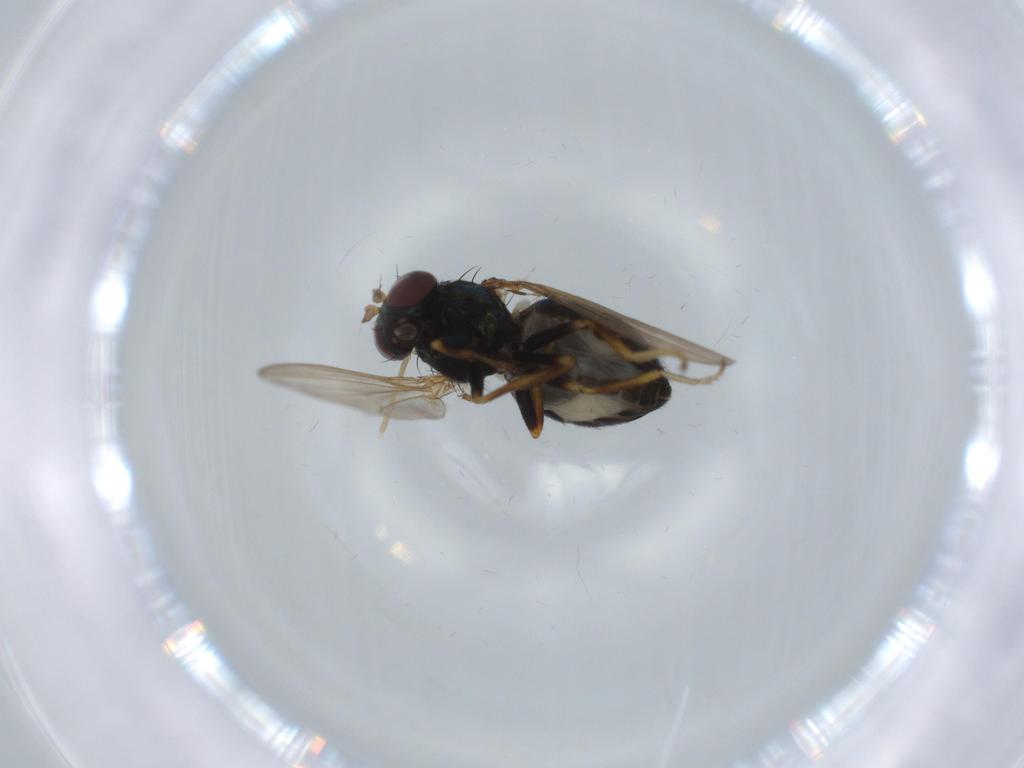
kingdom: Animalia
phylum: Arthropoda
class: Insecta
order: Diptera
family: Ephydridae
